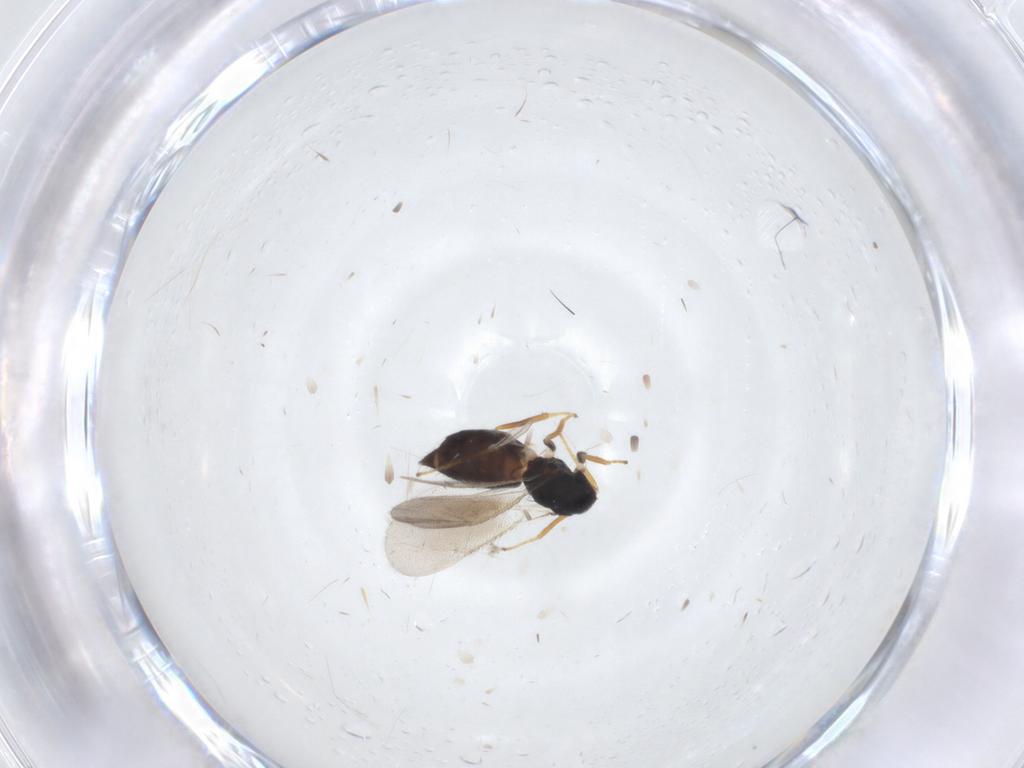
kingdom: Animalia
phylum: Arthropoda
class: Insecta
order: Hymenoptera
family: Eulophidae
